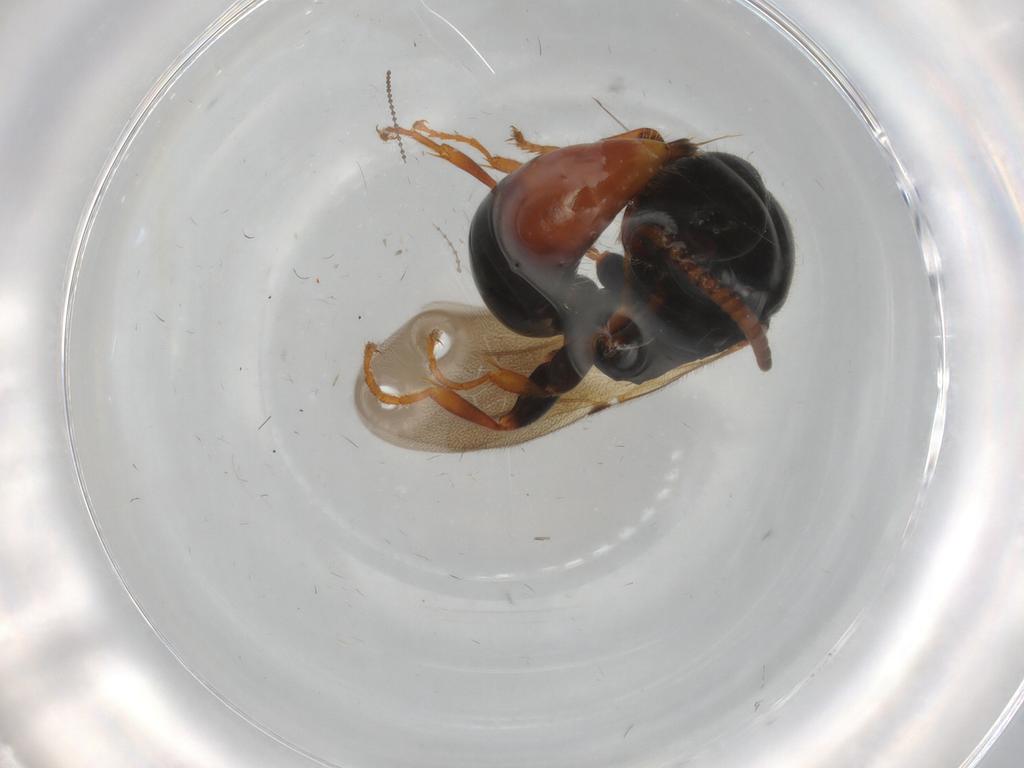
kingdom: Animalia
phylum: Arthropoda
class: Insecta
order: Hymenoptera
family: Bethylidae
